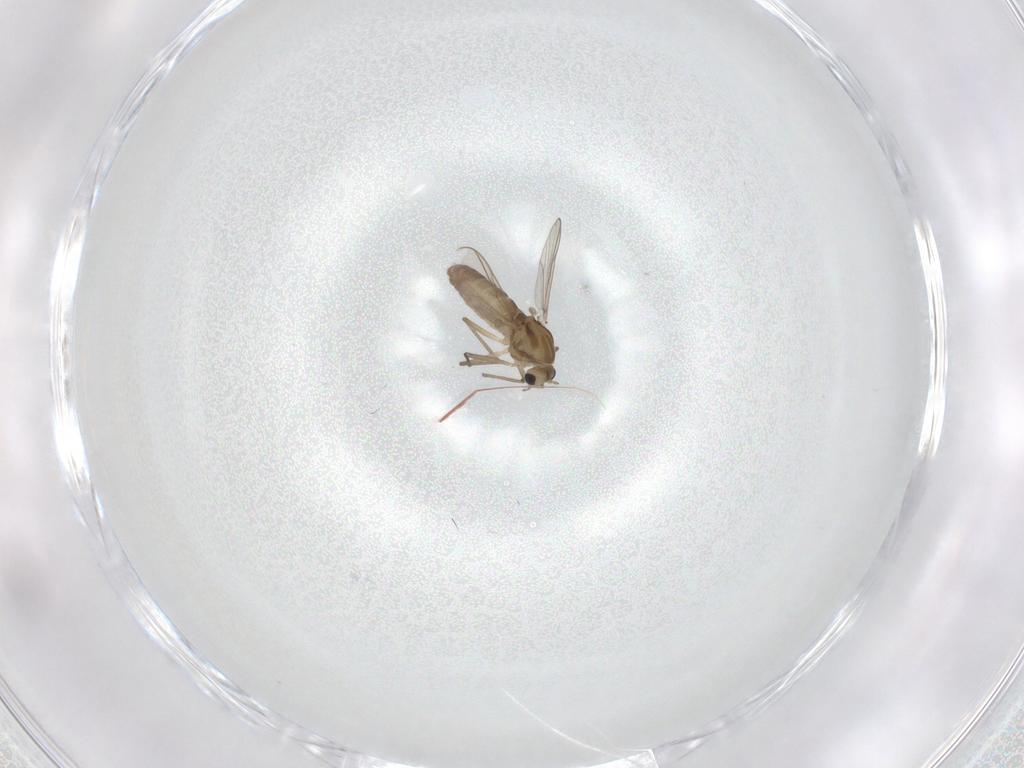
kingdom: Animalia
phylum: Arthropoda
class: Insecta
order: Diptera
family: Chironomidae
